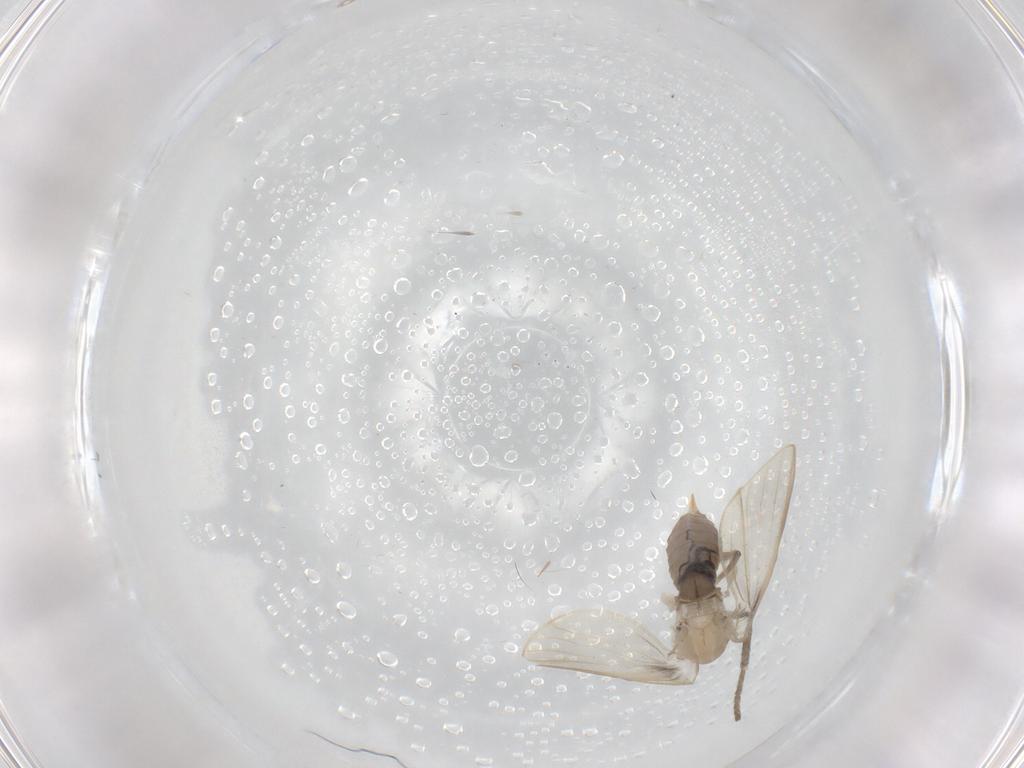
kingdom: Animalia
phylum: Arthropoda
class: Insecta
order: Diptera
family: Psychodidae
